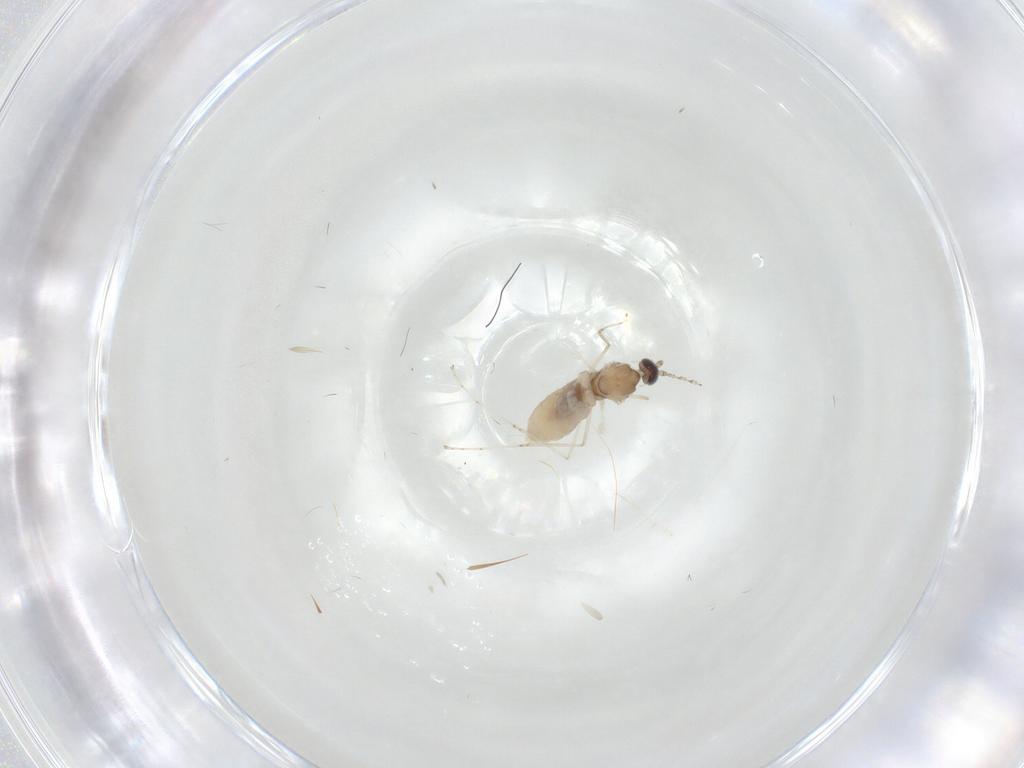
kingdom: Animalia
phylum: Arthropoda
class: Insecta
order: Diptera
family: Cecidomyiidae
